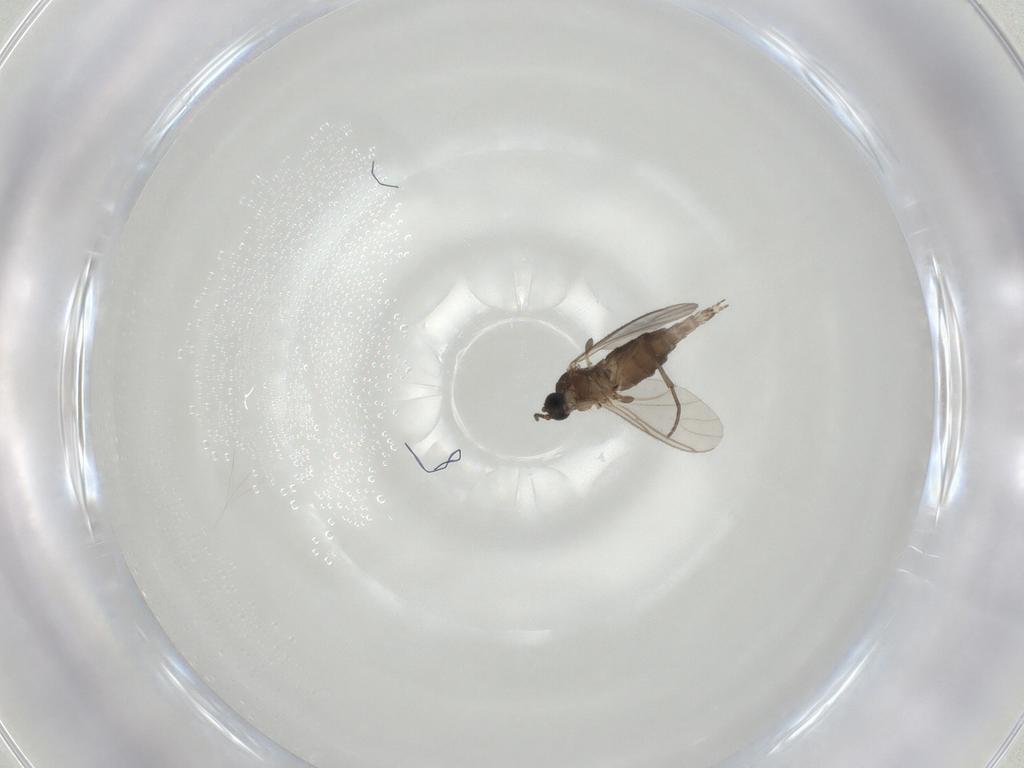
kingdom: Animalia
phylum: Arthropoda
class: Insecta
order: Diptera
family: Sciaridae
